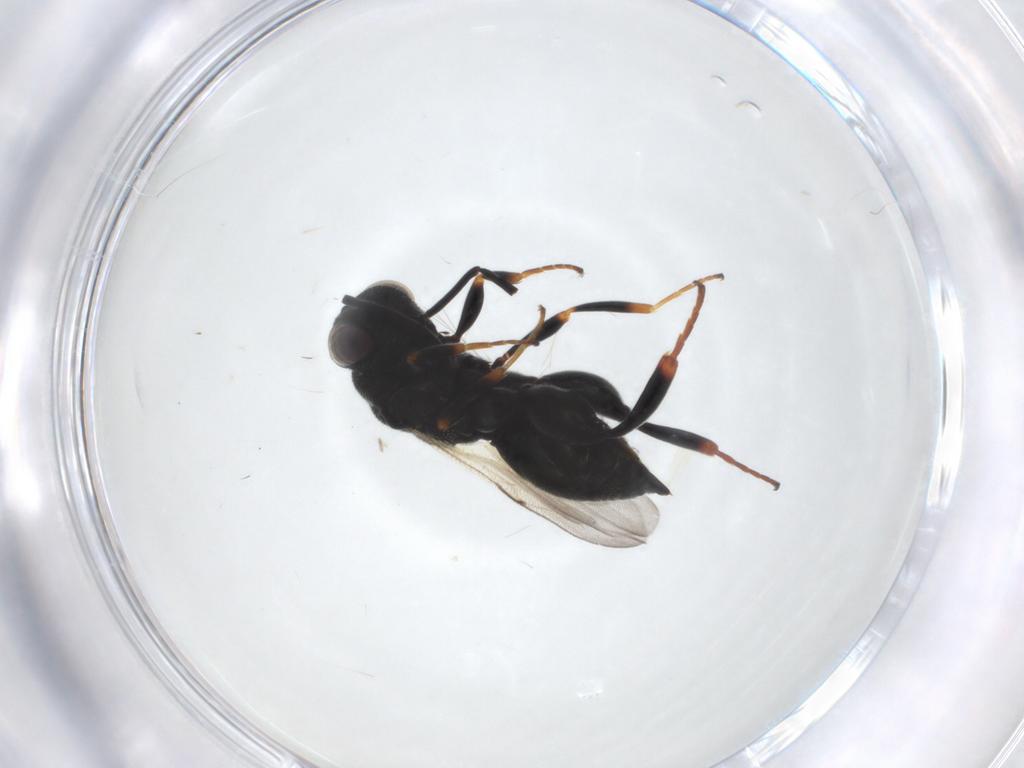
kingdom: Animalia
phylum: Arthropoda
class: Insecta
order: Hymenoptera
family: Chalcididae
